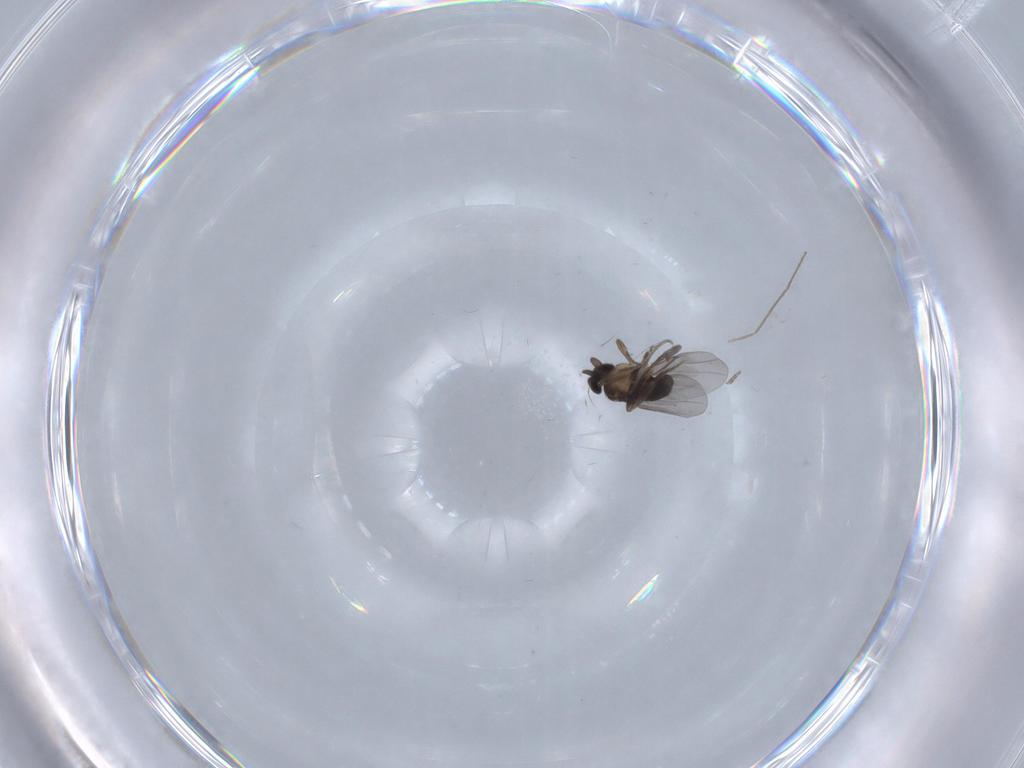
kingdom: Animalia
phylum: Arthropoda
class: Insecta
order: Diptera
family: Chironomidae
